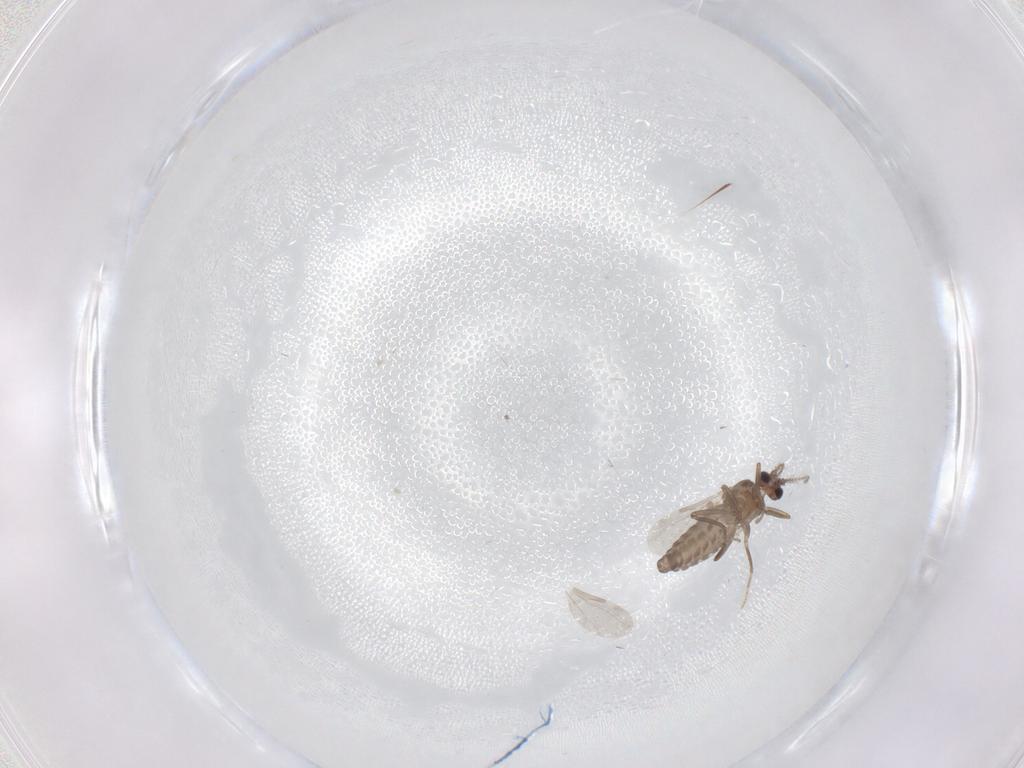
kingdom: Animalia
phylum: Arthropoda
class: Insecta
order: Diptera
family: Ceratopogonidae
